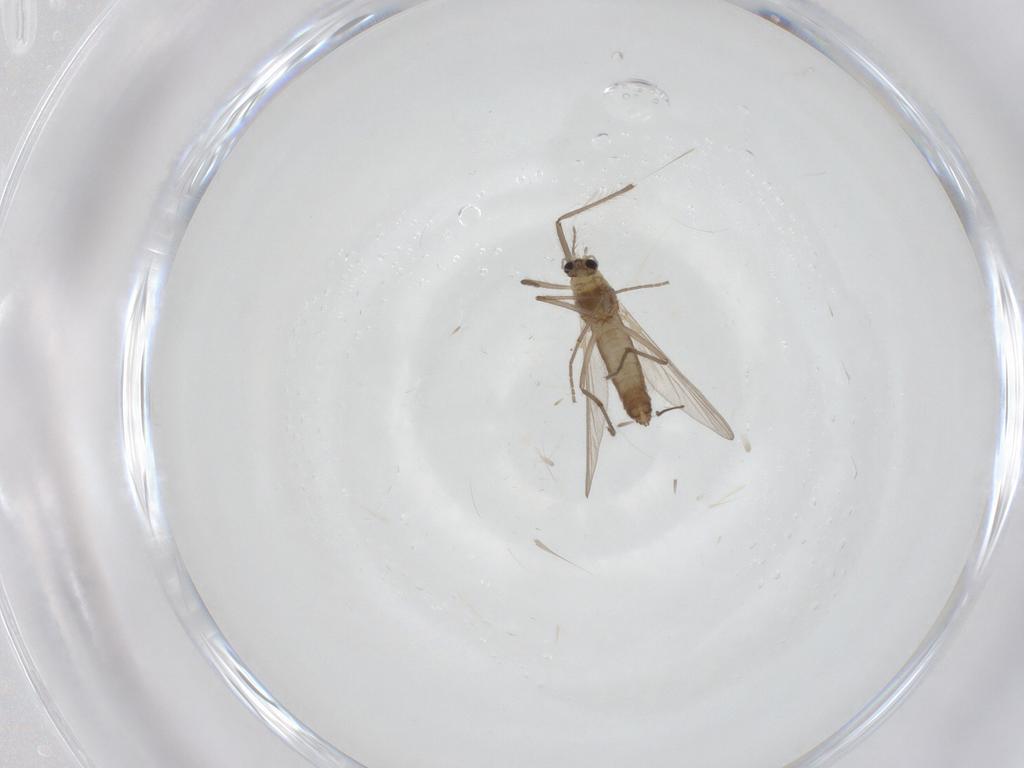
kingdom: Animalia
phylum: Arthropoda
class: Insecta
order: Diptera
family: Chironomidae
